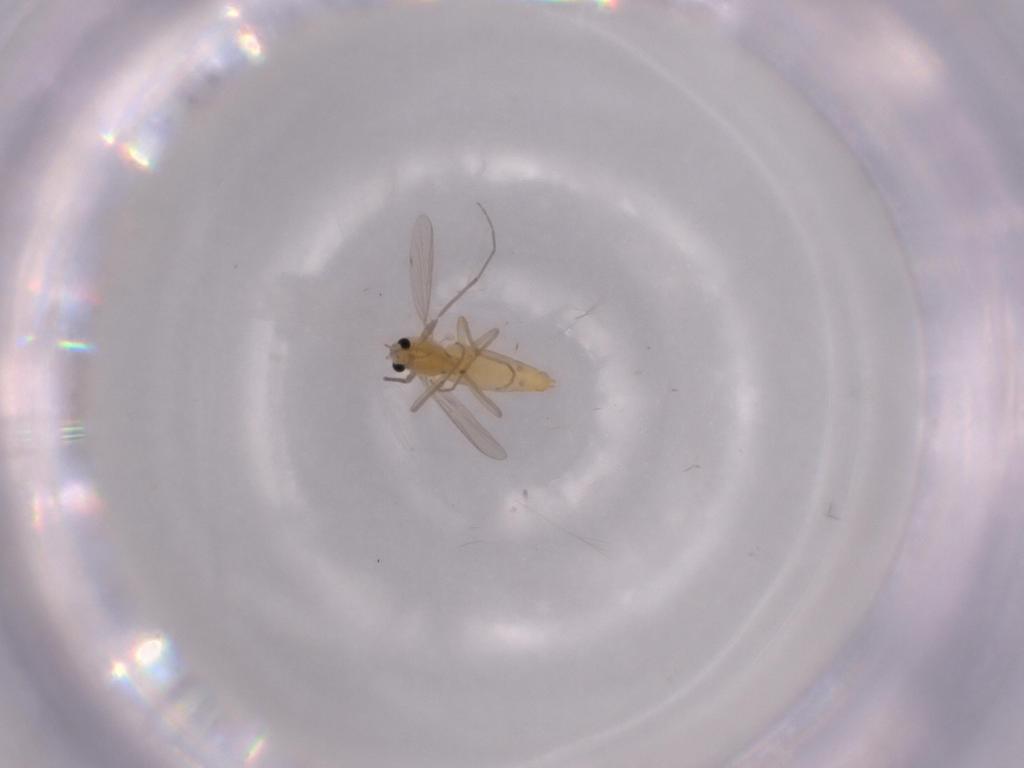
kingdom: Animalia
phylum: Arthropoda
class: Insecta
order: Diptera
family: Chironomidae
